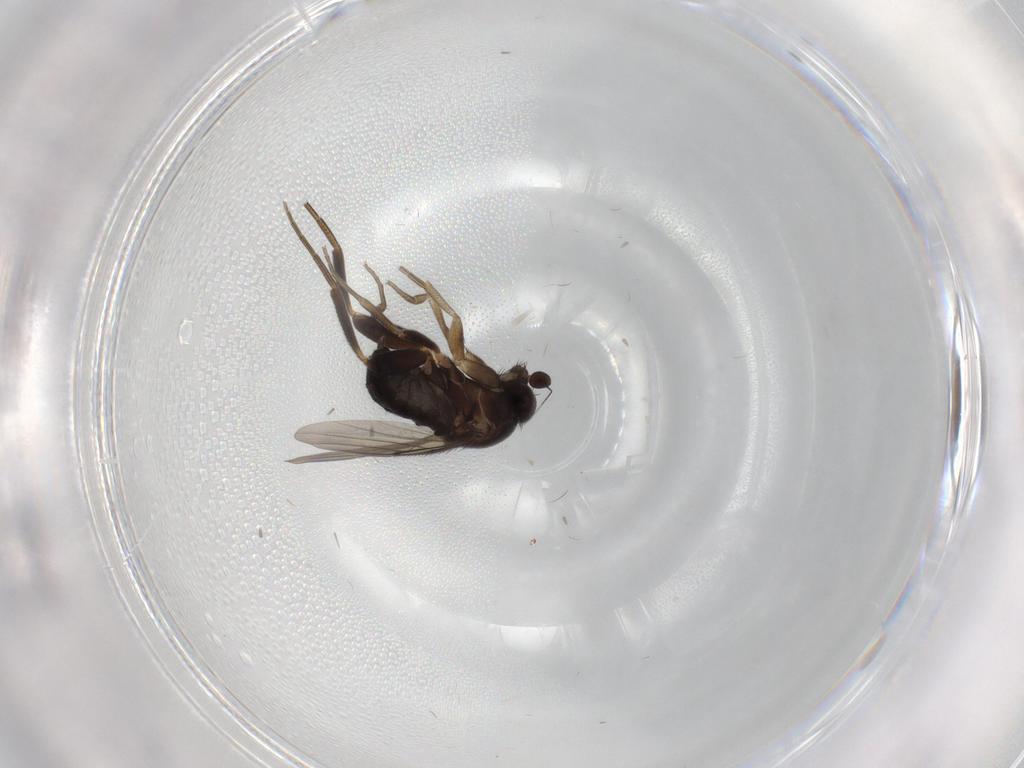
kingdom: Animalia
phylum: Arthropoda
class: Insecta
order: Diptera
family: Phoridae
